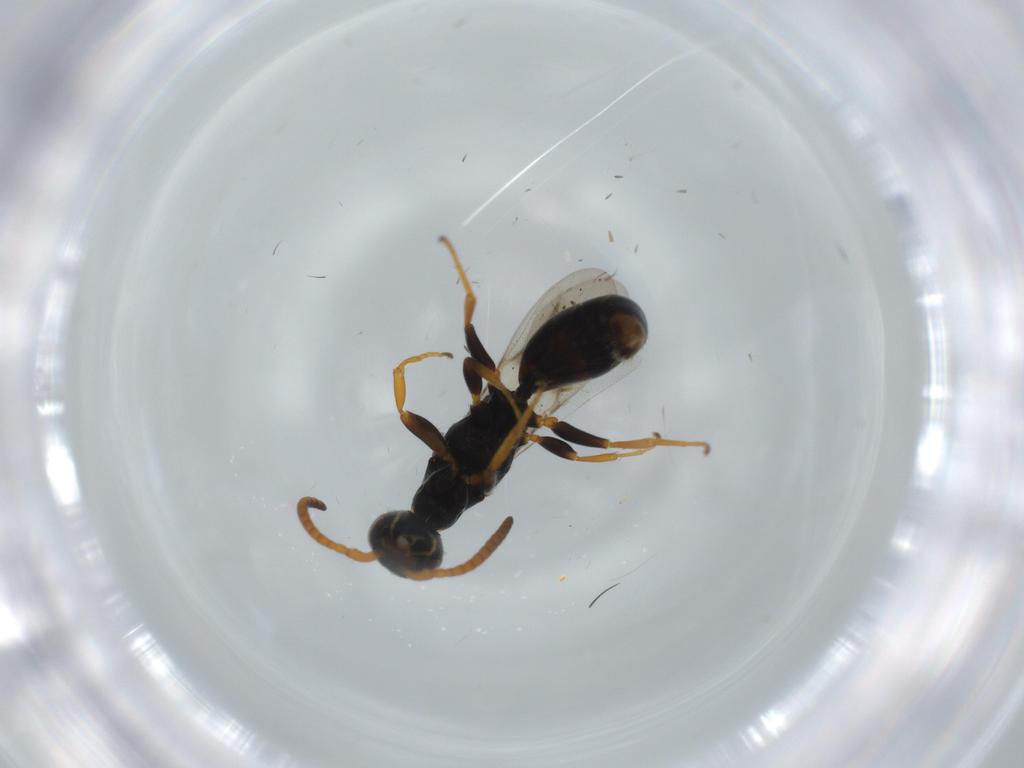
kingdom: Animalia
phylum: Arthropoda
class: Insecta
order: Hymenoptera
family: Bethylidae
